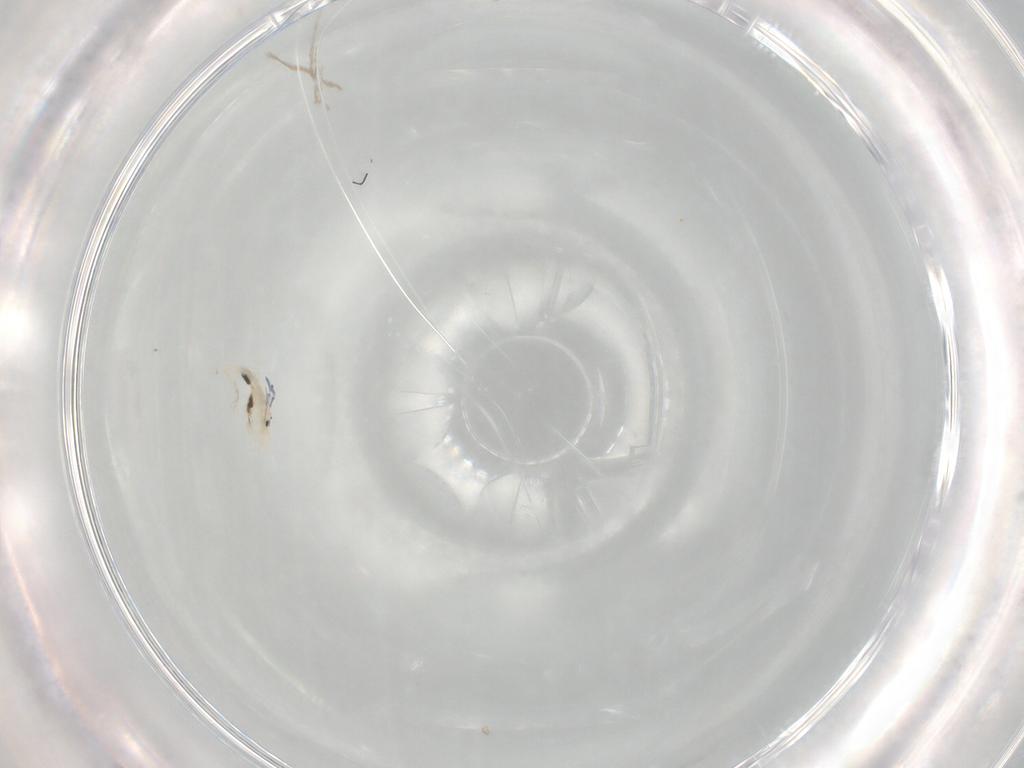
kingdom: Animalia
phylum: Arthropoda
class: Collembola
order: Entomobryomorpha
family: Entomobryidae
